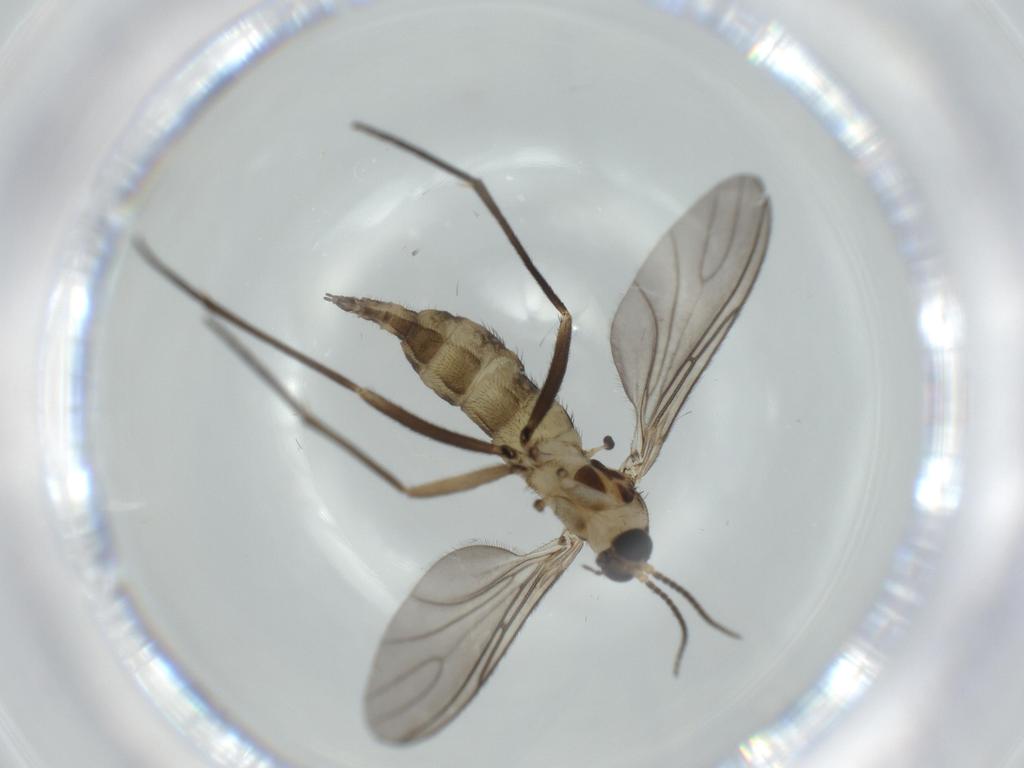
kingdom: Animalia
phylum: Arthropoda
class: Insecta
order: Diptera
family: Sciaridae
